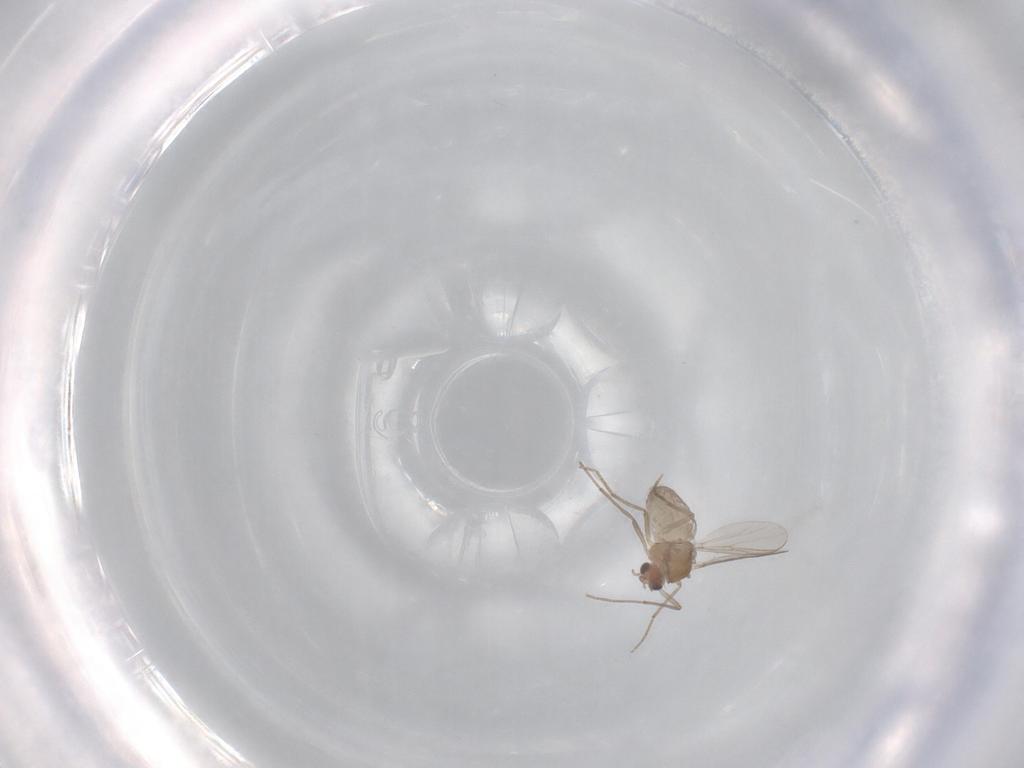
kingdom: Animalia
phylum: Arthropoda
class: Insecta
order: Diptera
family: Chironomidae
